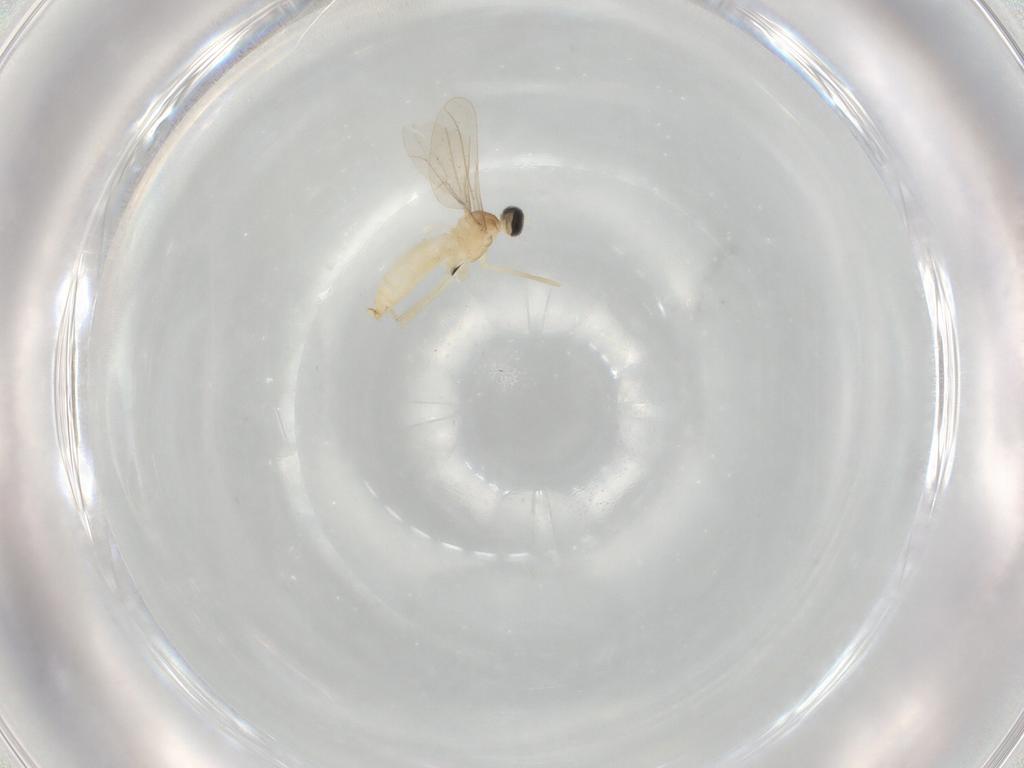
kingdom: Animalia
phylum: Arthropoda
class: Insecta
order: Diptera
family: Cecidomyiidae
